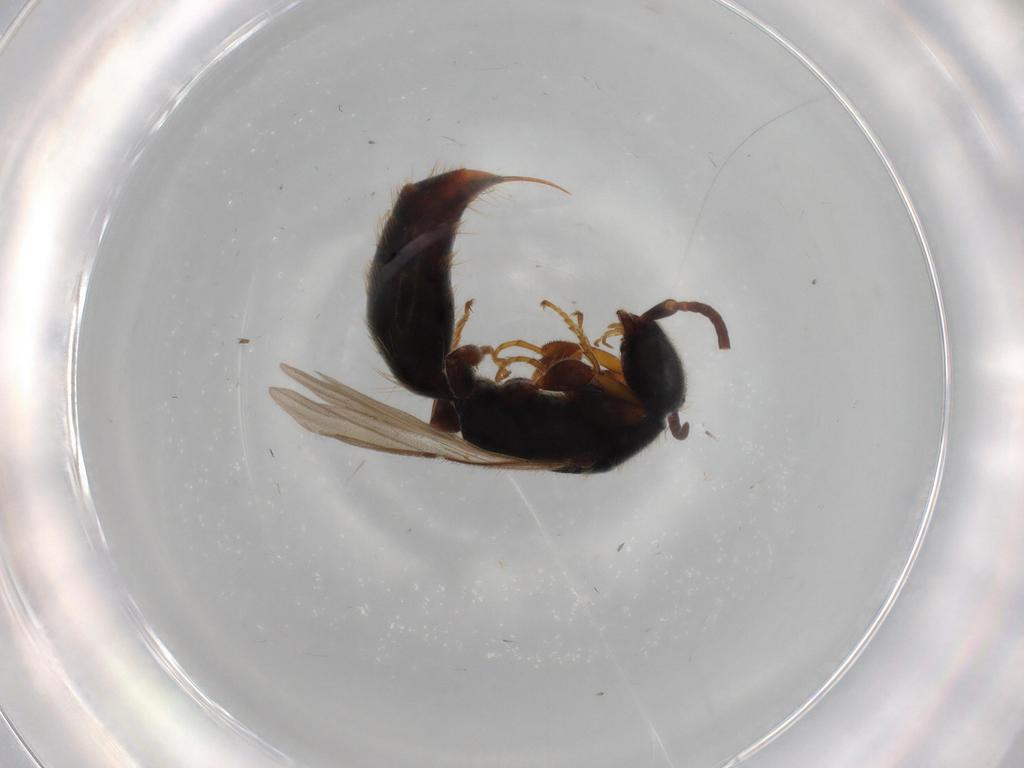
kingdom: Animalia
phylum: Arthropoda
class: Insecta
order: Hymenoptera
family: Bethylidae
